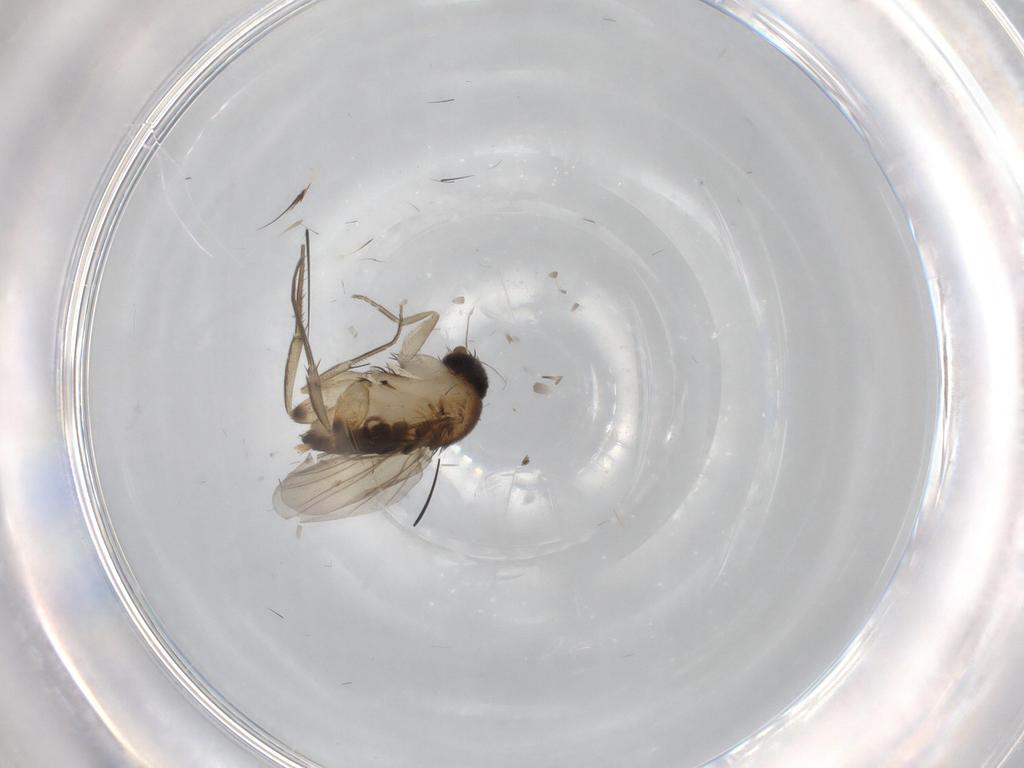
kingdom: Animalia
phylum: Arthropoda
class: Insecta
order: Diptera
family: Phoridae
